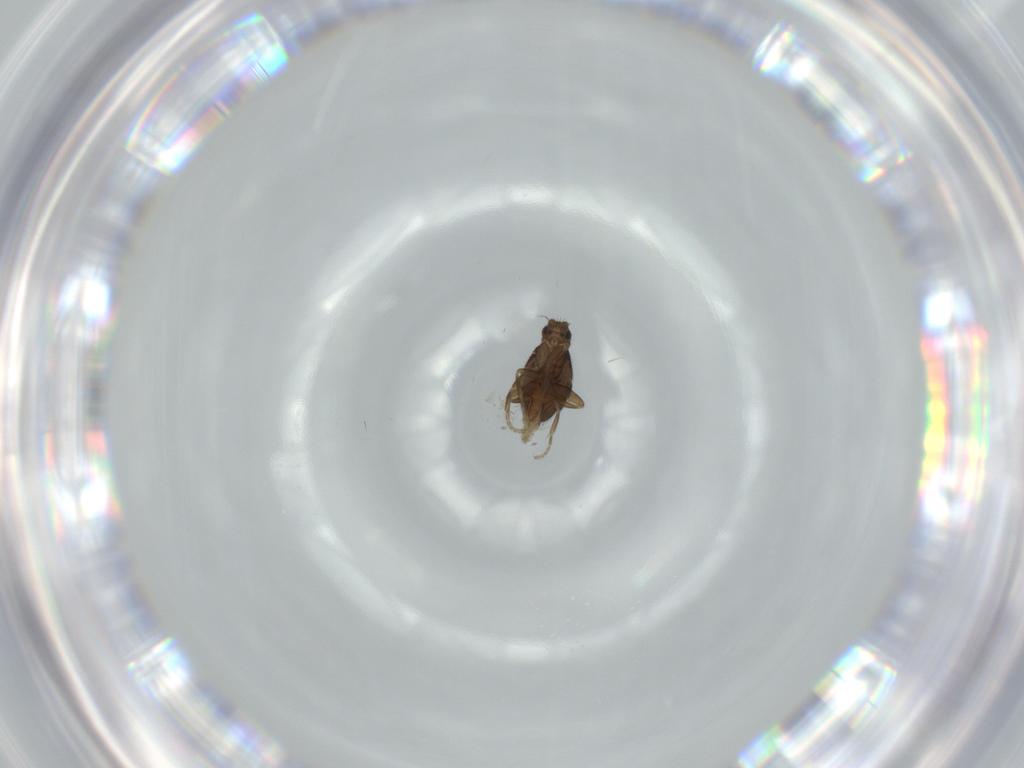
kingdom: Animalia
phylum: Arthropoda
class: Insecta
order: Diptera
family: Phoridae
